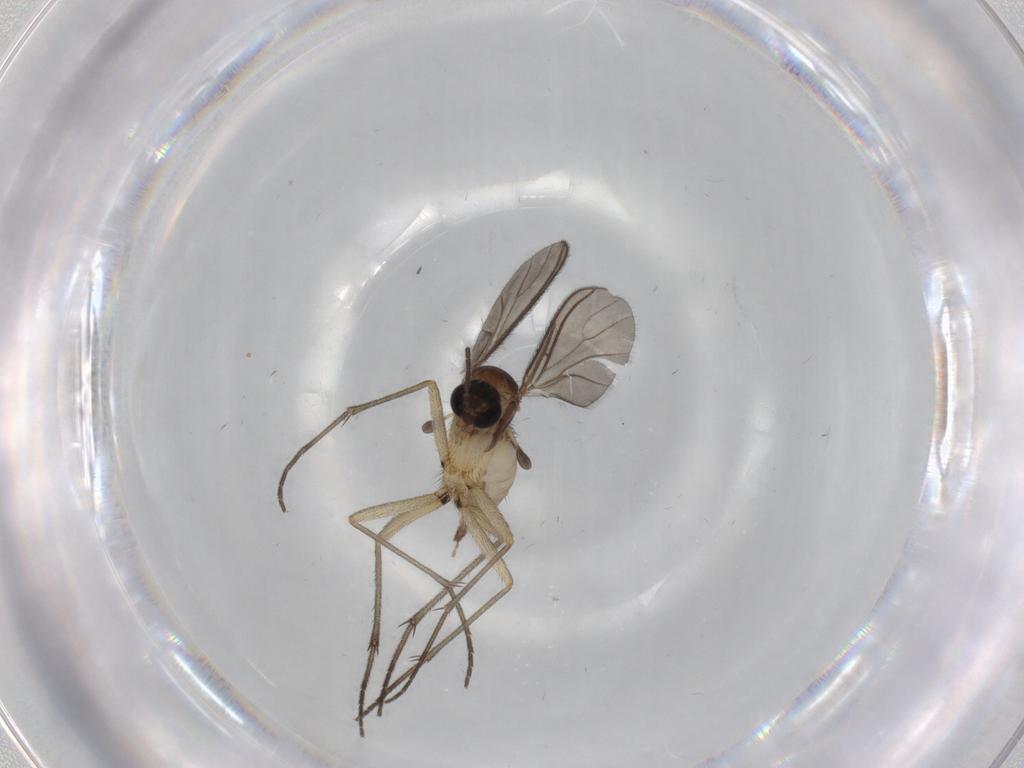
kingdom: Animalia
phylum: Arthropoda
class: Insecta
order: Diptera
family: Sciaridae
